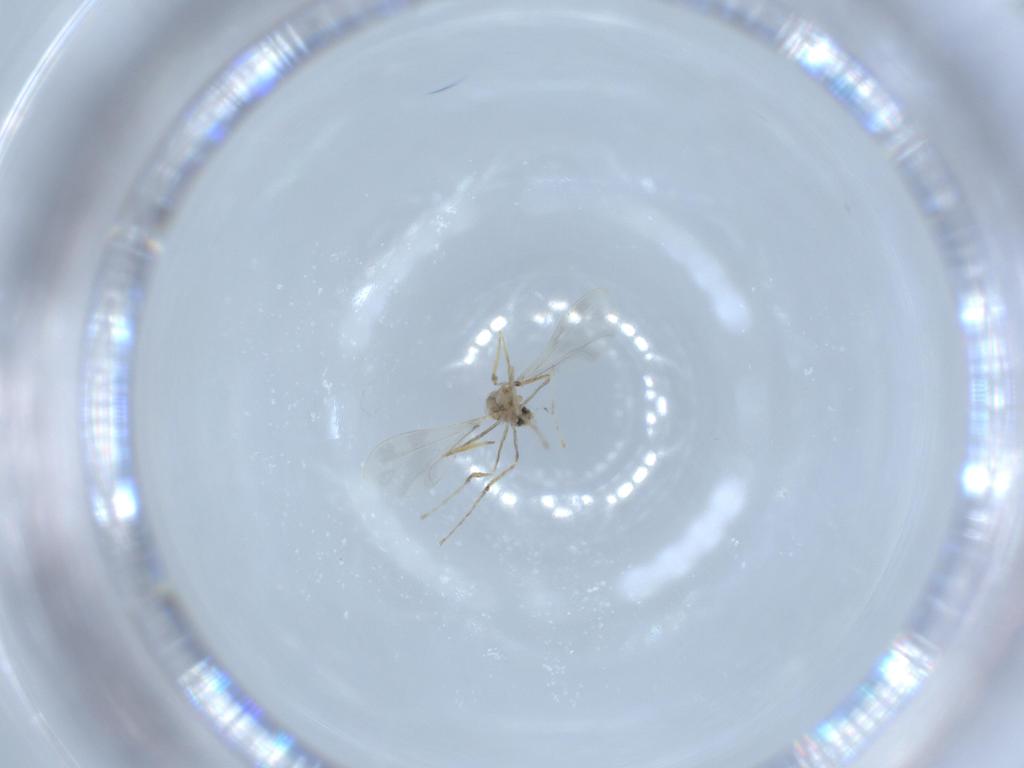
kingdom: Animalia
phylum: Arthropoda
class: Insecta
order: Diptera
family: Cecidomyiidae
